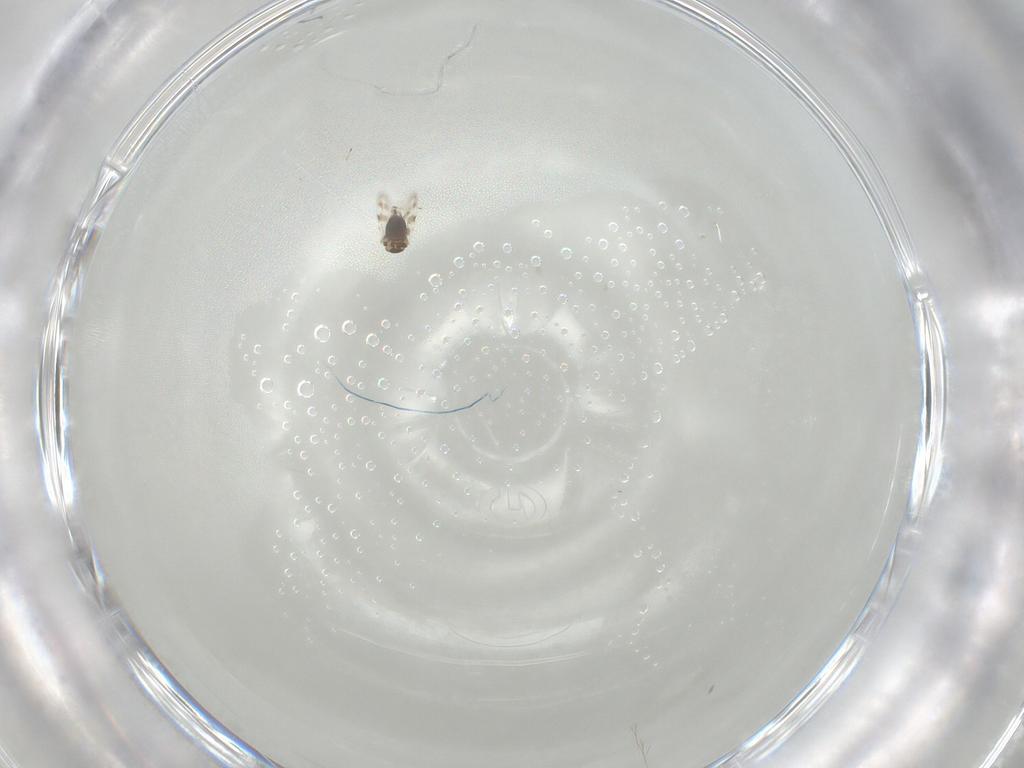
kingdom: Animalia
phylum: Arthropoda
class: Insecta
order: Hymenoptera
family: Azotidae
